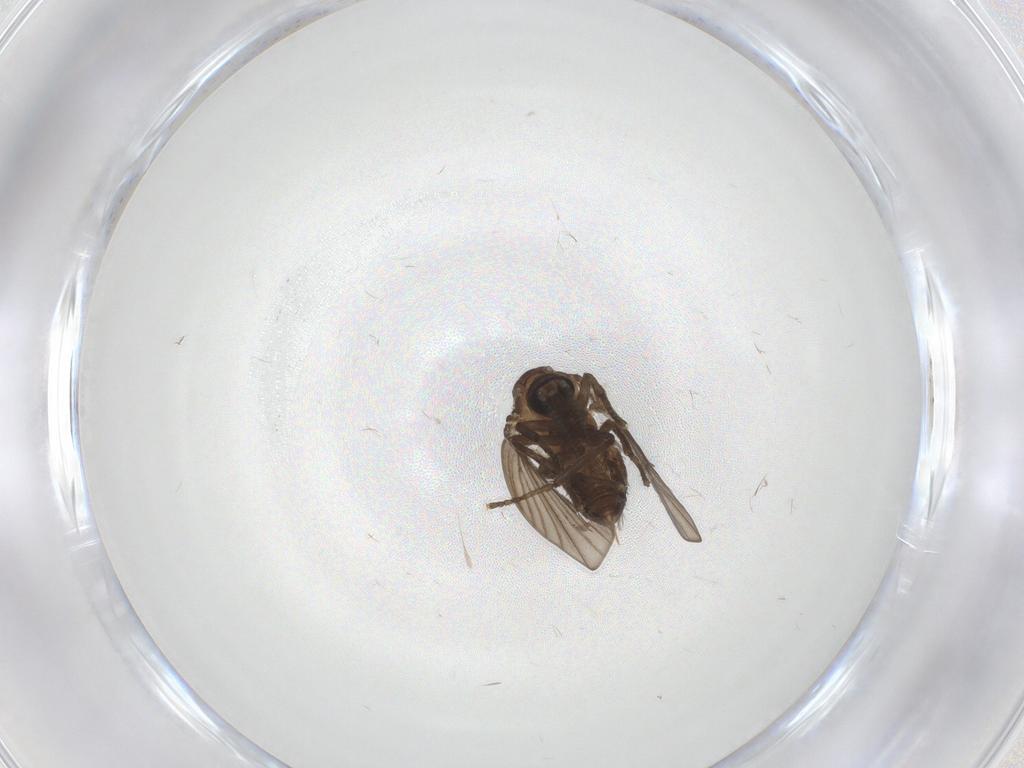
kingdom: Animalia
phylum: Arthropoda
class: Insecta
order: Diptera
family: Psychodidae
